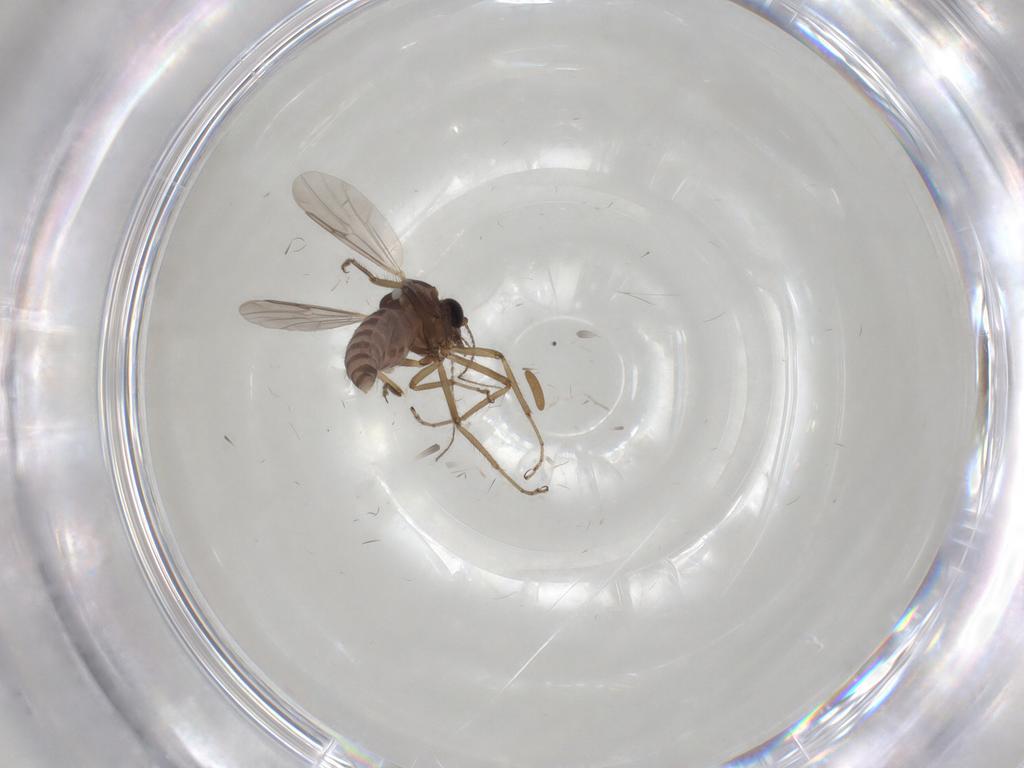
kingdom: Animalia
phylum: Arthropoda
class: Insecta
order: Diptera
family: Ceratopogonidae
